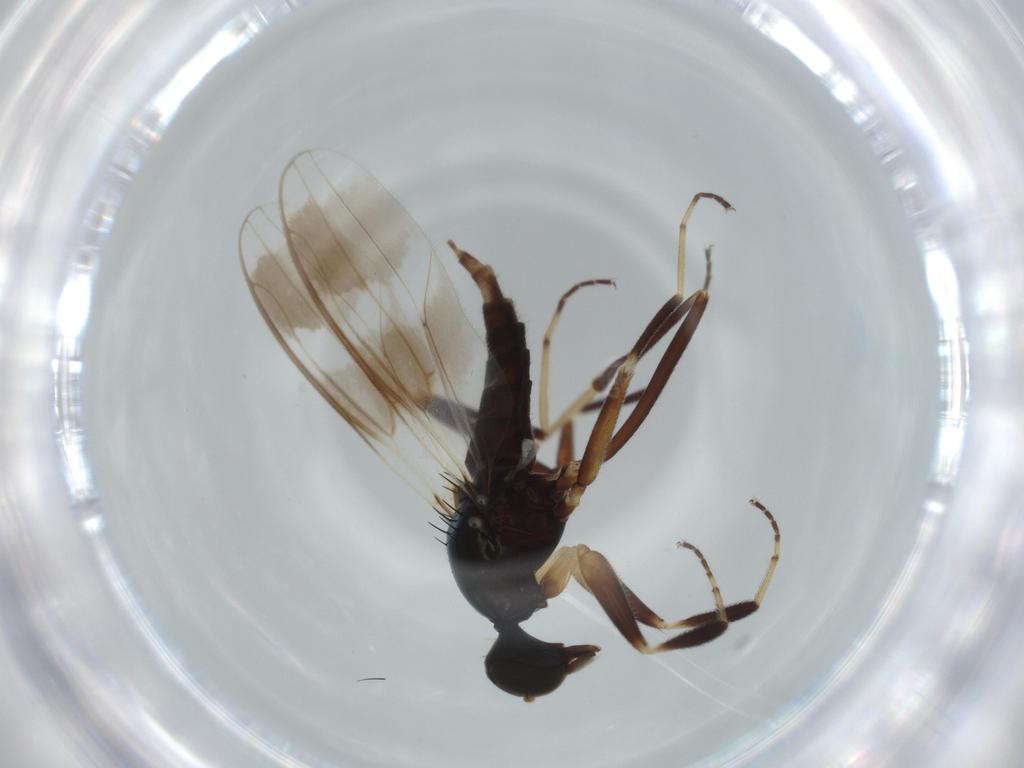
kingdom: Animalia
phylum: Arthropoda
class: Insecta
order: Diptera
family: Hybotidae
